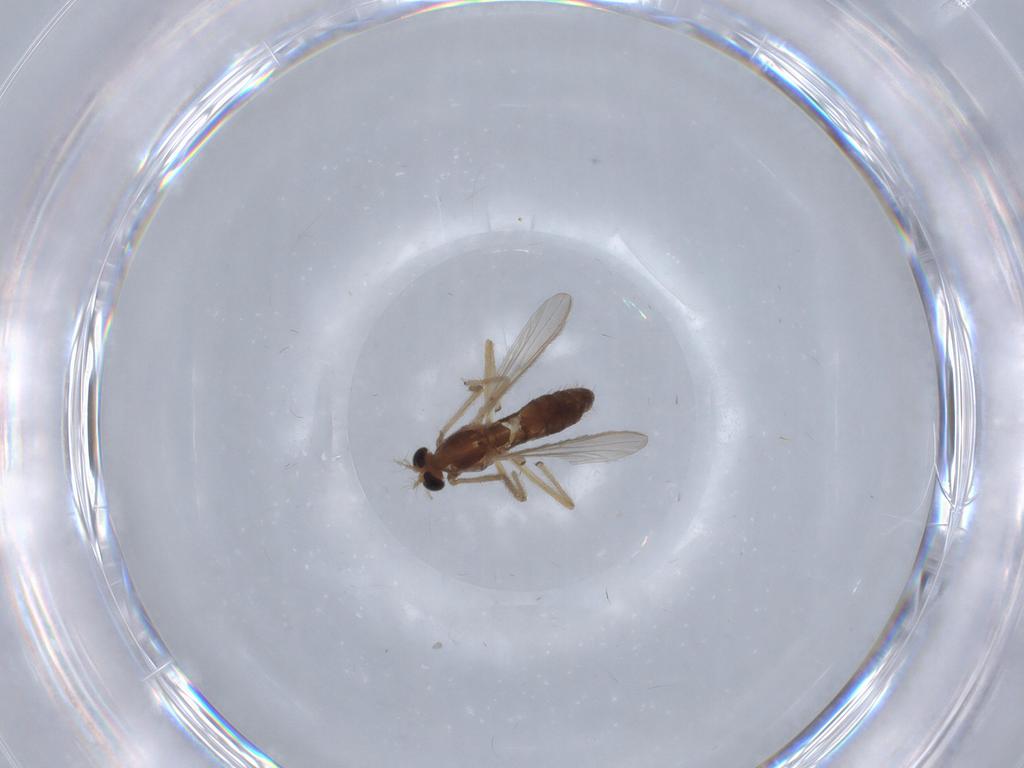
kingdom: Animalia
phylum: Arthropoda
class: Insecta
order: Diptera
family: Chironomidae
